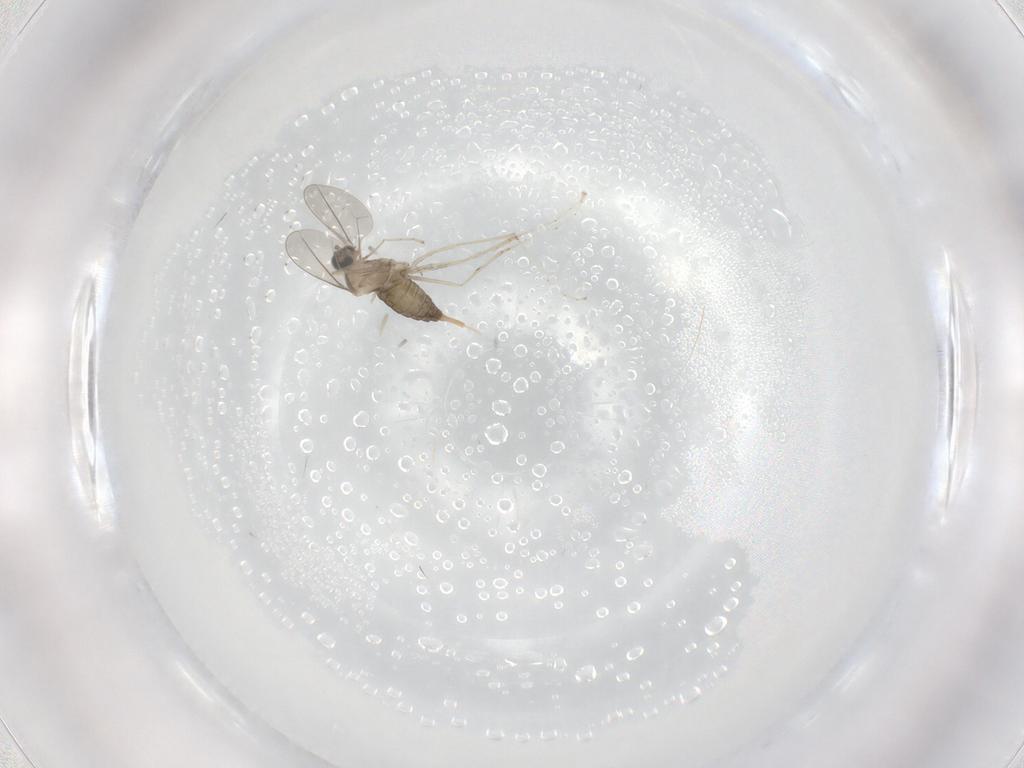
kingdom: Animalia
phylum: Arthropoda
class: Insecta
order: Diptera
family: Cecidomyiidae
